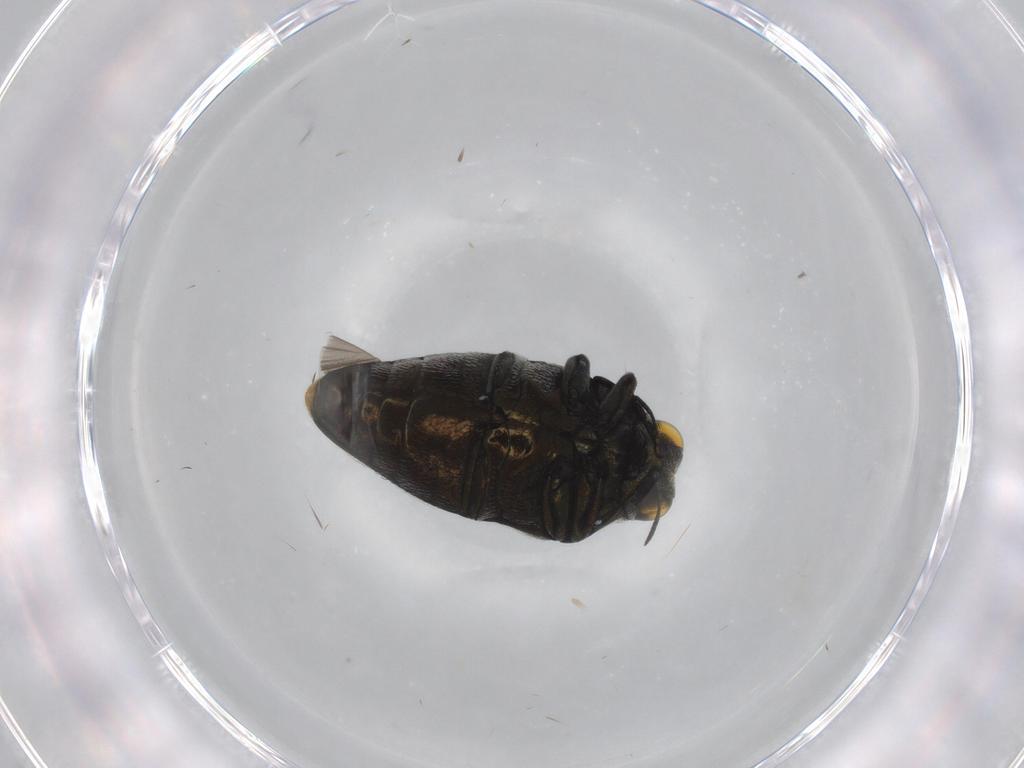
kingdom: Animalia
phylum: Arthropoda
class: Insecta
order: Coleoptera
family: Buprestidae
